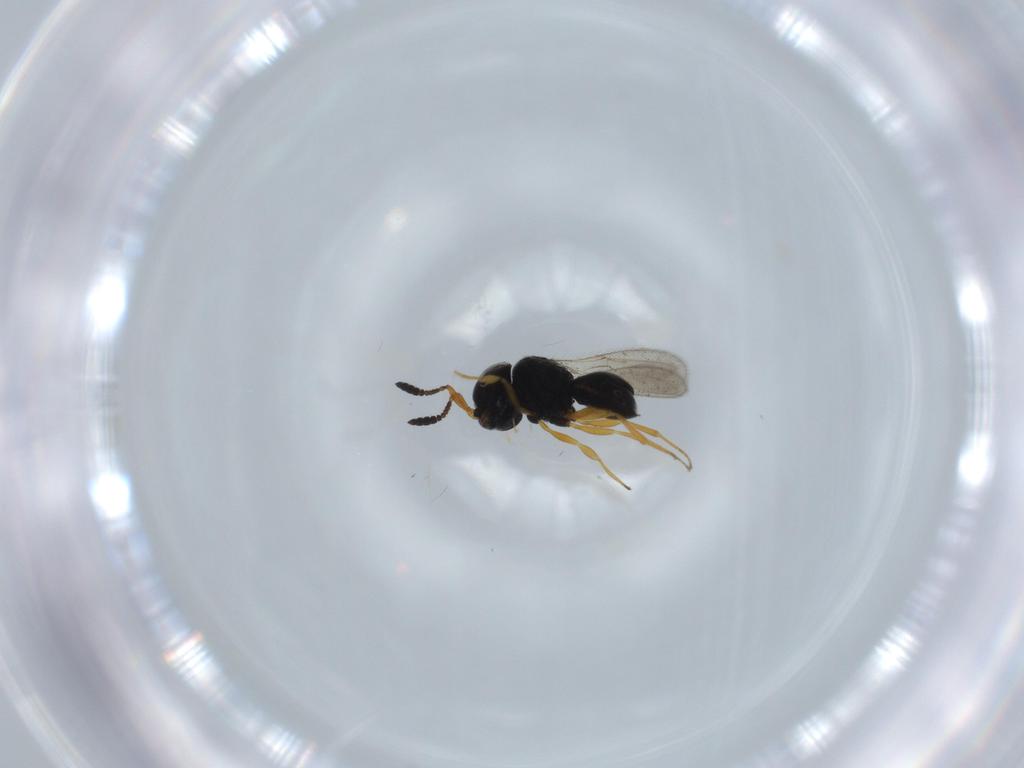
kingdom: Animalia
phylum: Arthropoda
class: Insecta
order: Hymenoptera
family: Scelionidae
